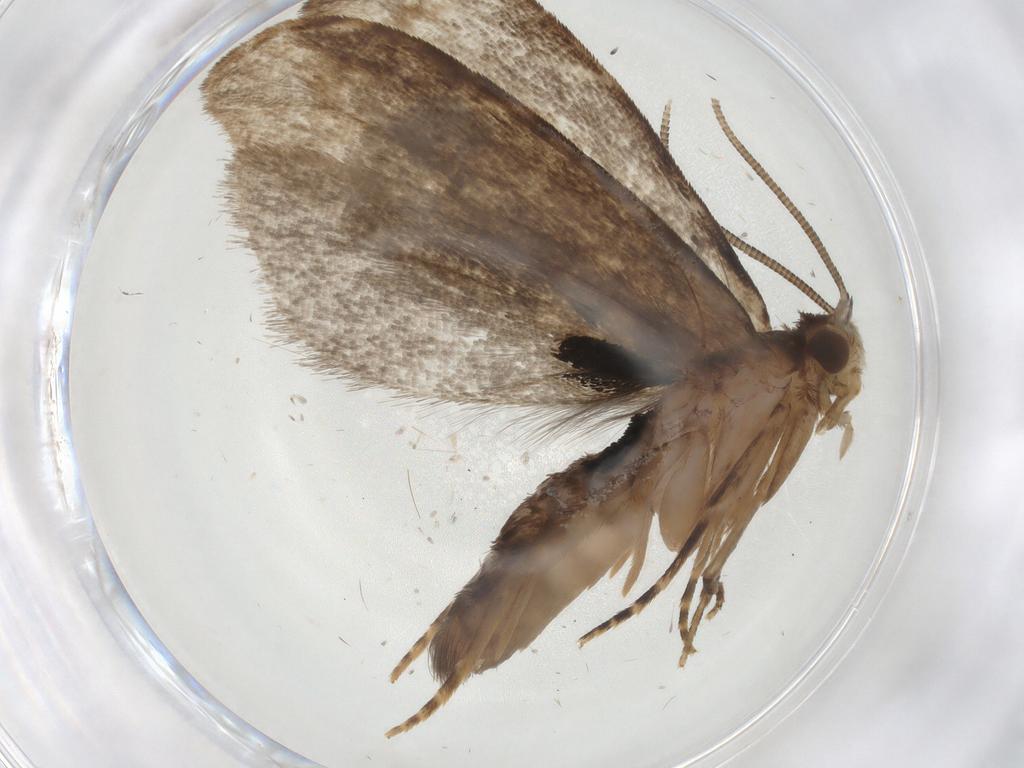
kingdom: Animalia
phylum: Arthropoda
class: Insecta
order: Lepidoptera
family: Dryadaulidae
